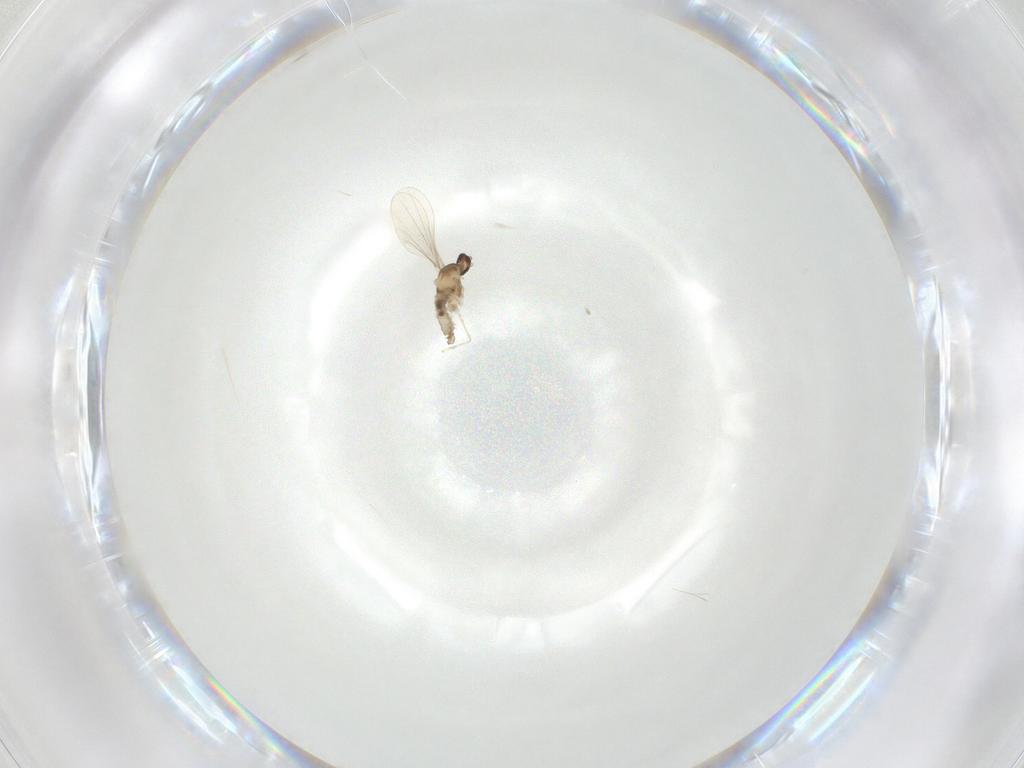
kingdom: Animalia
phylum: Arthropoda
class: Insecta
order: Diptera
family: Cecidomyiidae
